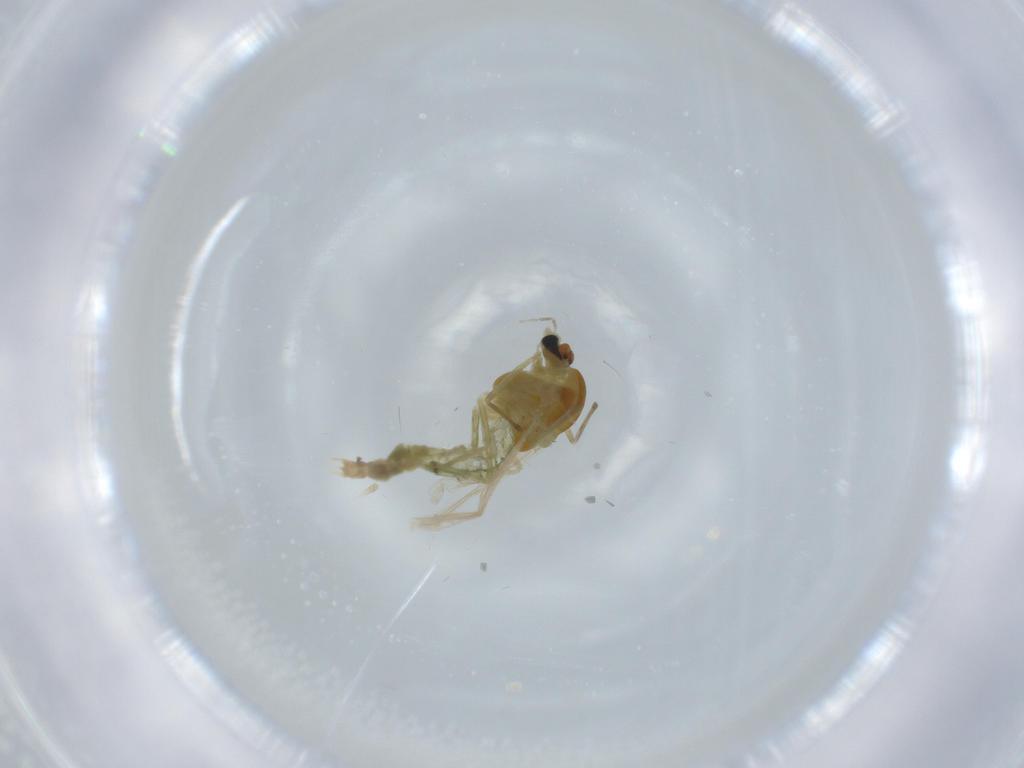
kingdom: Animalia
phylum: Arthropoda
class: Insecta
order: Diptera
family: Chironomidae
